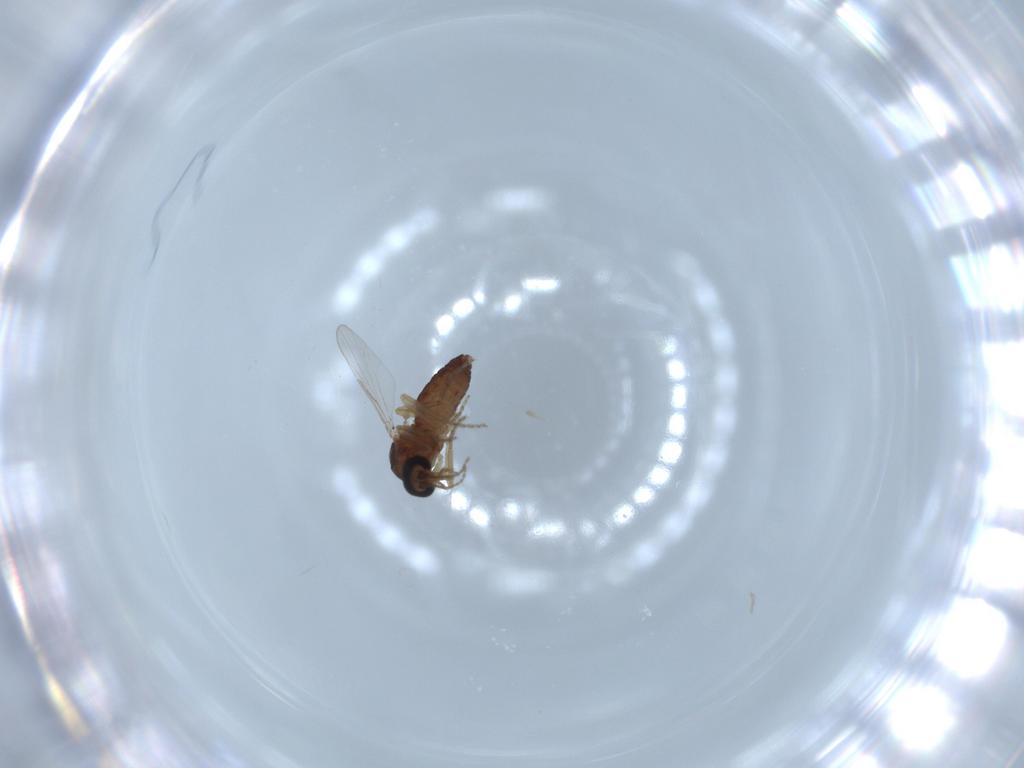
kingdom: Animalia
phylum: Arthropoda
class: Insecta
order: Diptera
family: Ceratopogonidae
